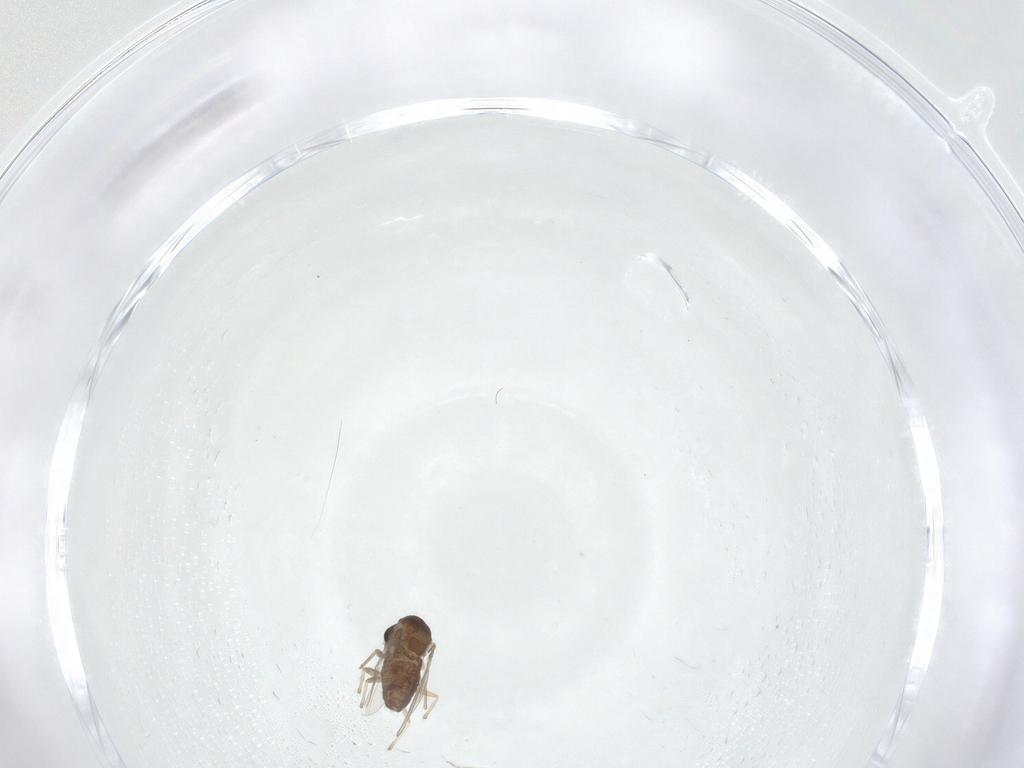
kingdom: Animalia
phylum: Arthropoda
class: Insecta
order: Diptera
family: Chironomidae
